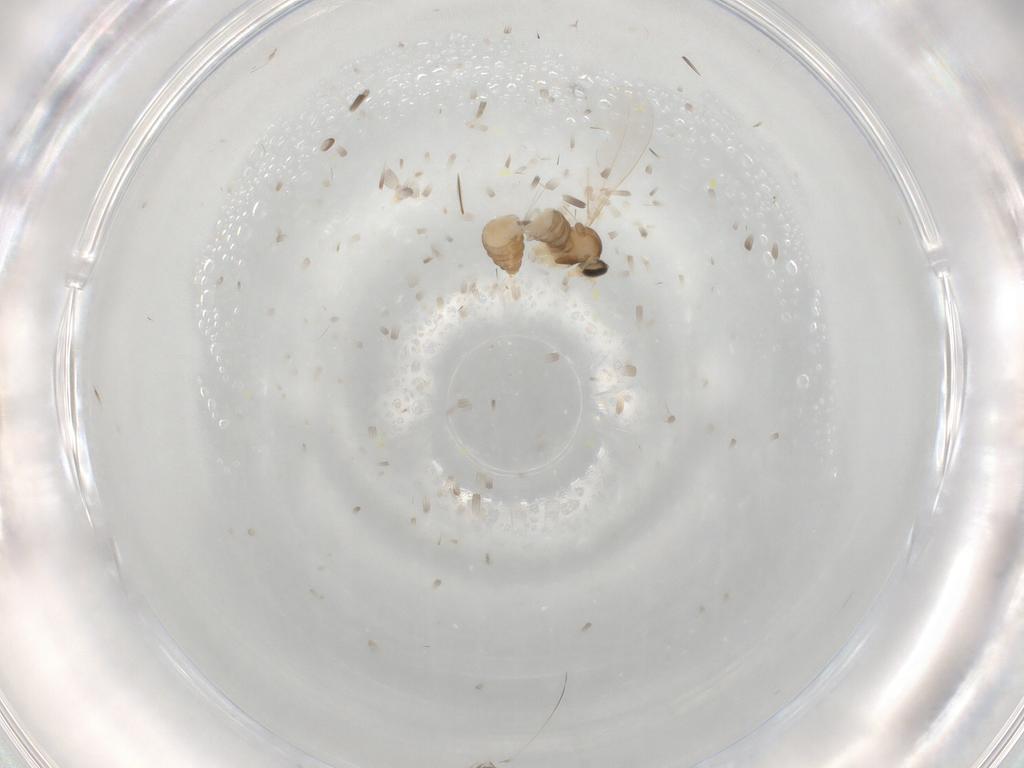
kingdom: Animalia
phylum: Arthropoda
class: Insecta
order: Diptera
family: Cecidomyiidae
